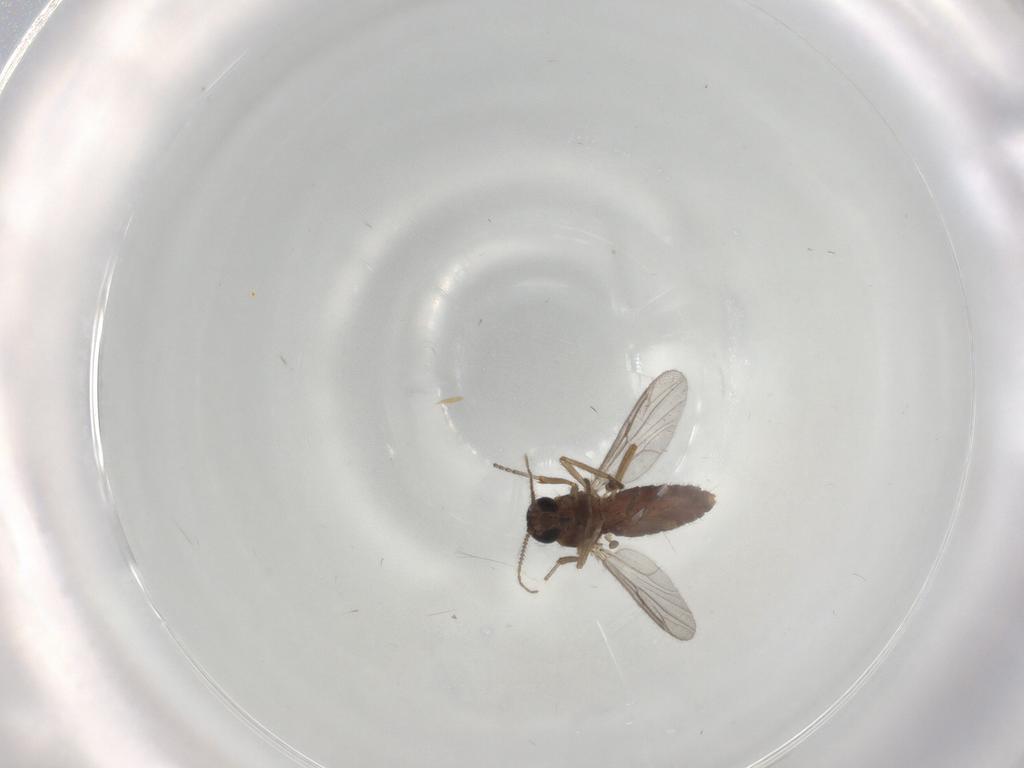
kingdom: Animalia
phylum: Arthropoda
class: Insecta
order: Diptera
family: Ceratopogonidae
